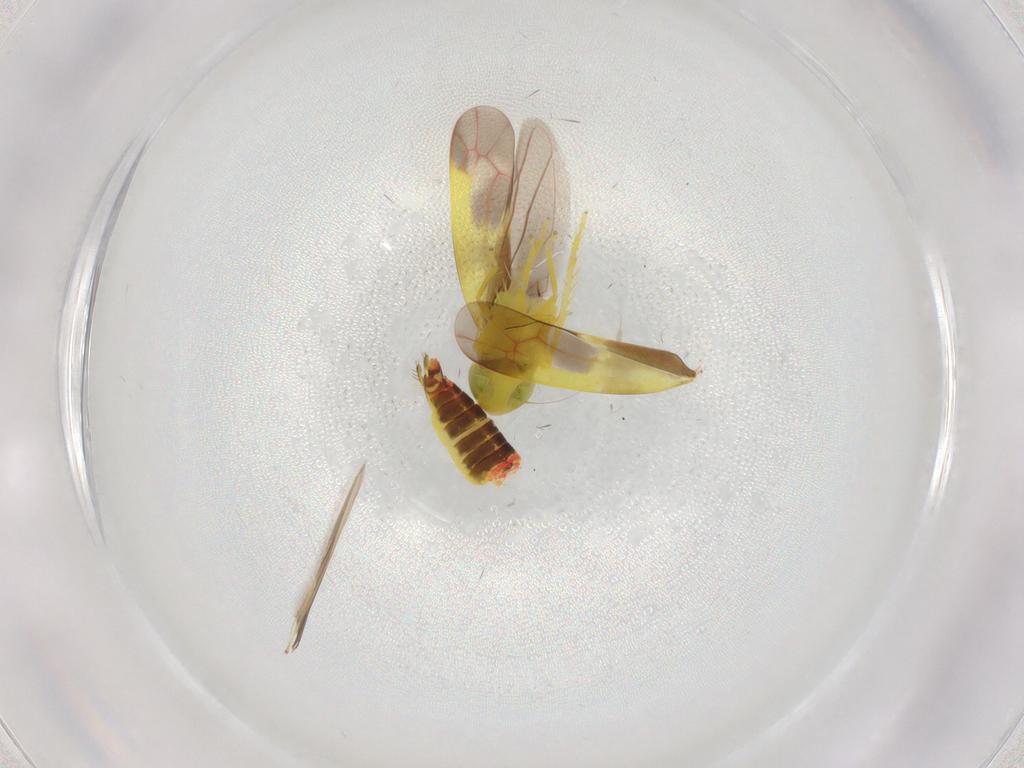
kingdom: Animalia
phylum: Arthropoda
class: Insecta
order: Hemiptera
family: Cicadellidae
